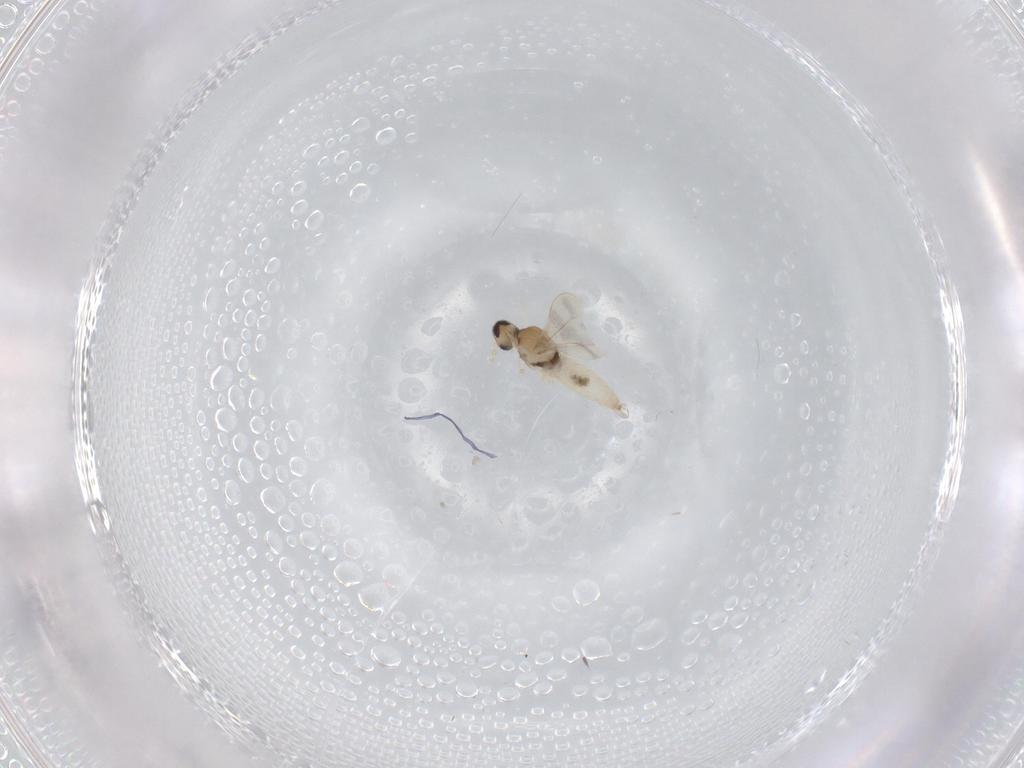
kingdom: Animalia
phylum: Arthropoda
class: Insecta
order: Diptera
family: Cecidomyiidae
